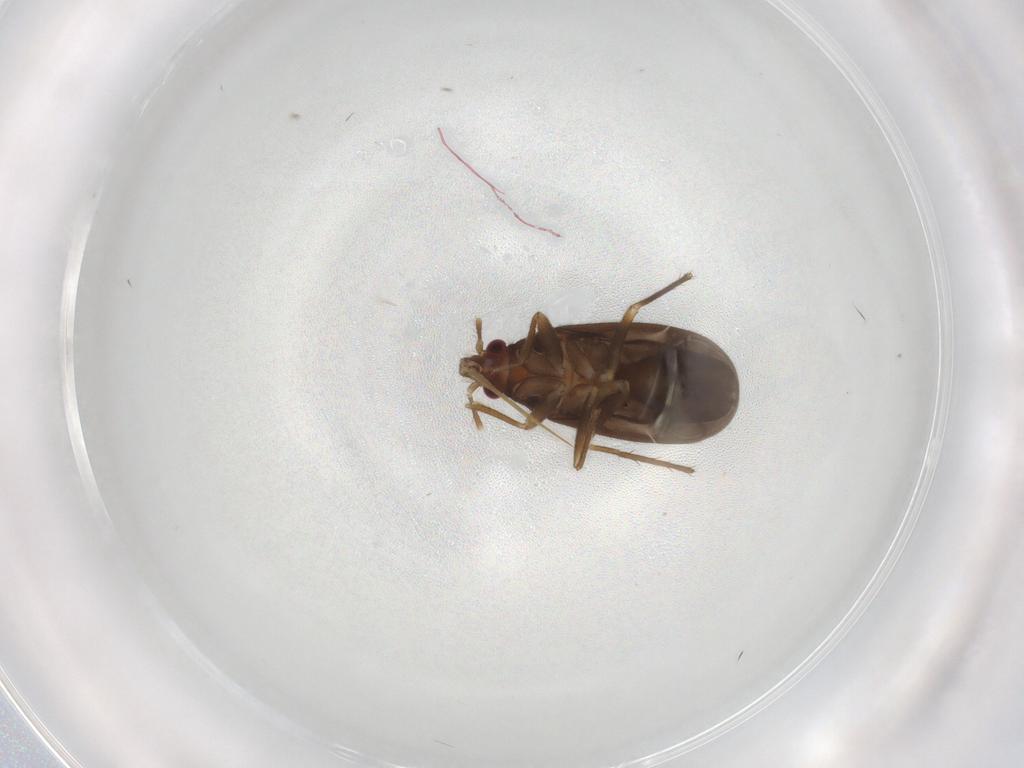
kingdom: Animalia
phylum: Arthropoda
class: Insecta
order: Hemiptera
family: Ceratocombidae
